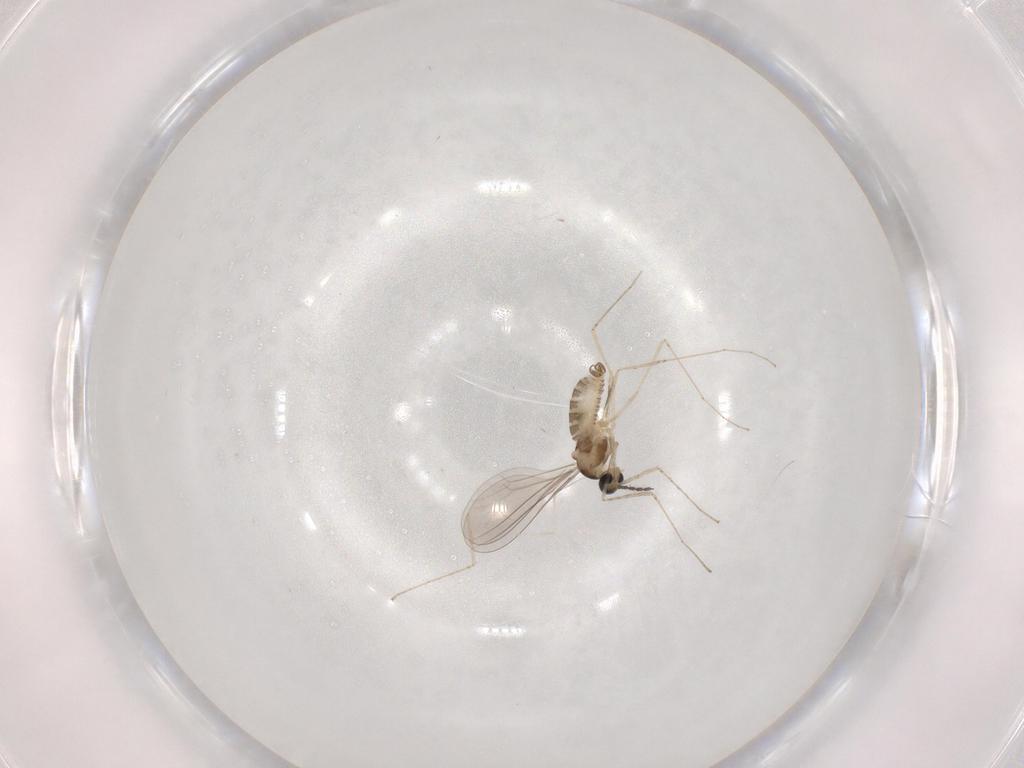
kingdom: Animalia
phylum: Arthropoda
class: Insecta
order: Diptera
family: Cecidomyiidae
